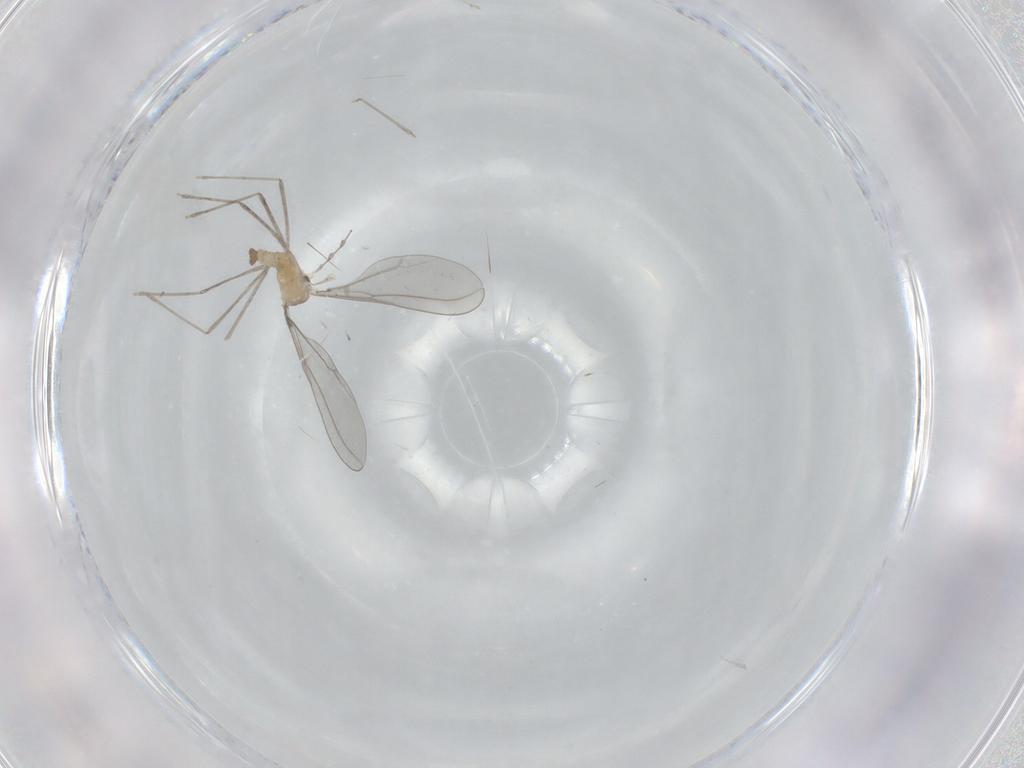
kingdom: Animalia
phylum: Arthropoda
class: Insecta
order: Diptera
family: Cecidomyiidae
